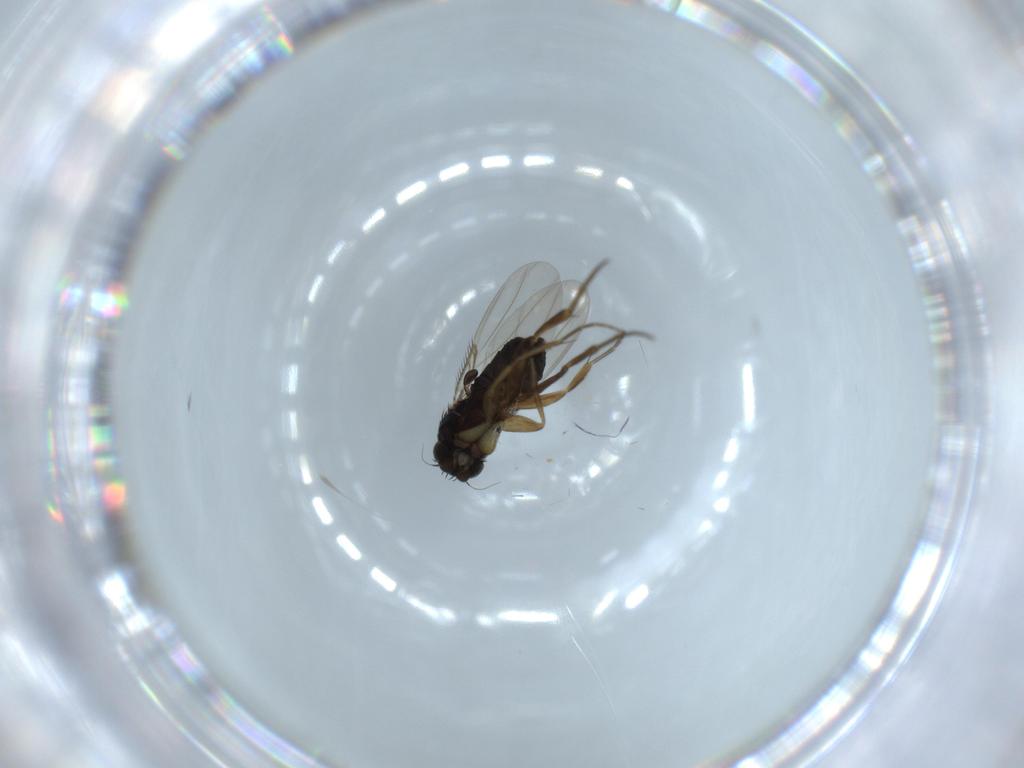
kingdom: Animalia
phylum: Arthropoda
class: Insecta
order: Diptera
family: Phoridae
